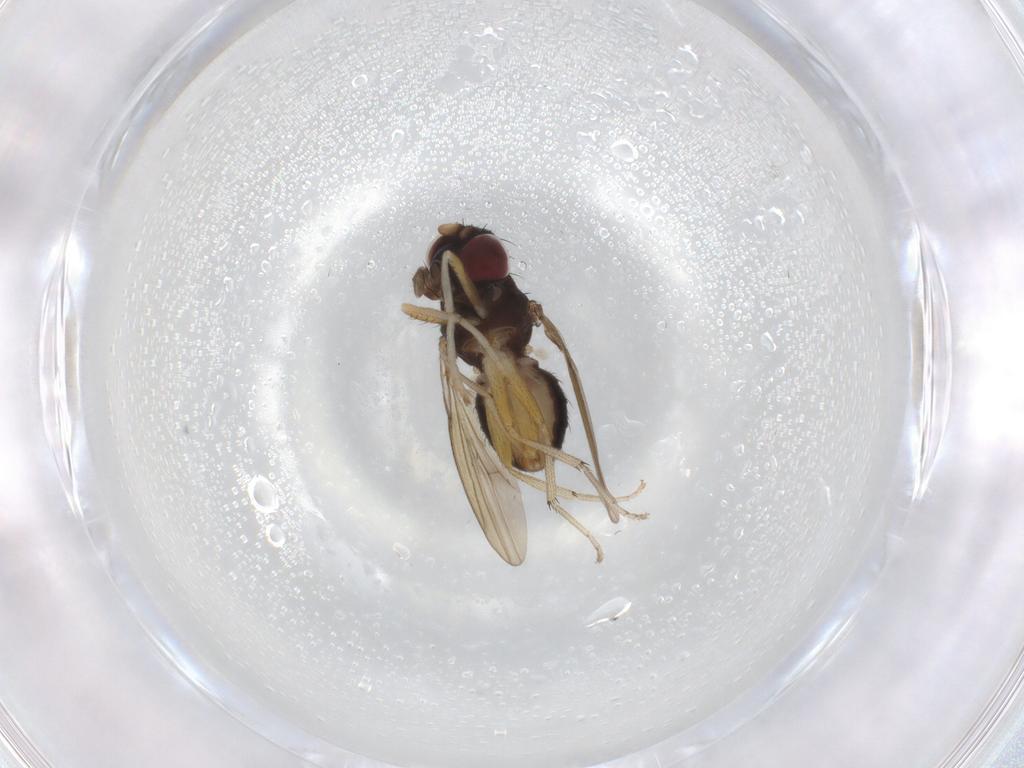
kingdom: Animalia
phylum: Arthropoda
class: Insecta
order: Diptera
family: Lauxaniidae
